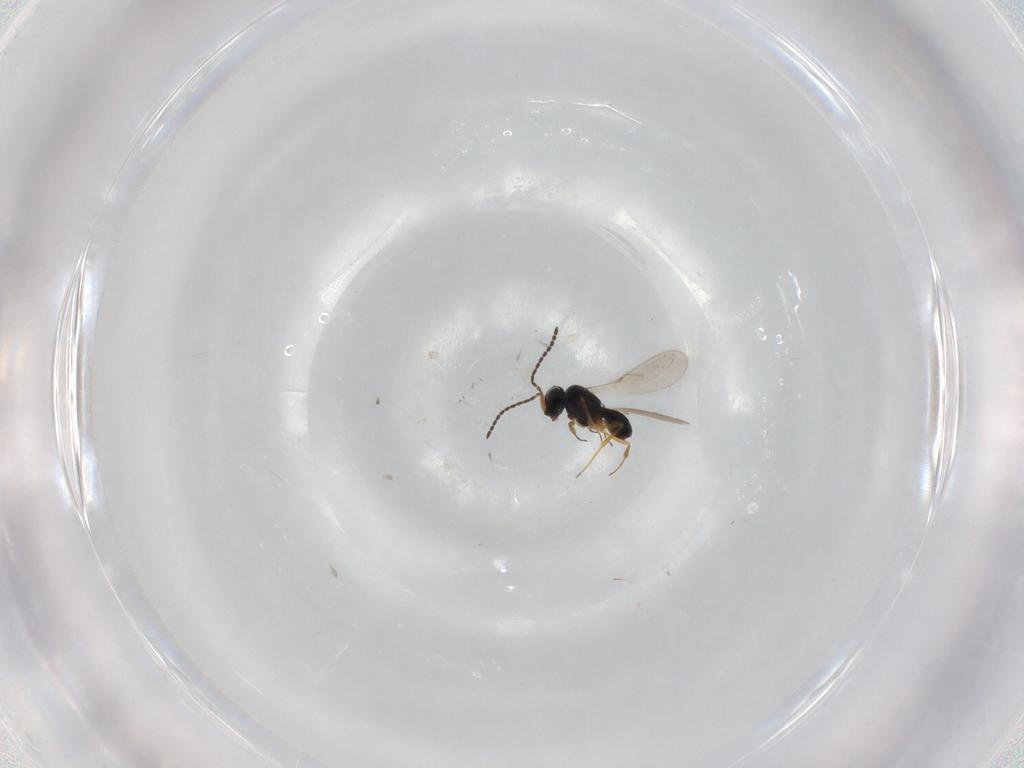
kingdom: Animalia
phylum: Arthropoda
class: Insecta
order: Hymenoptera
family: Scelionidae
